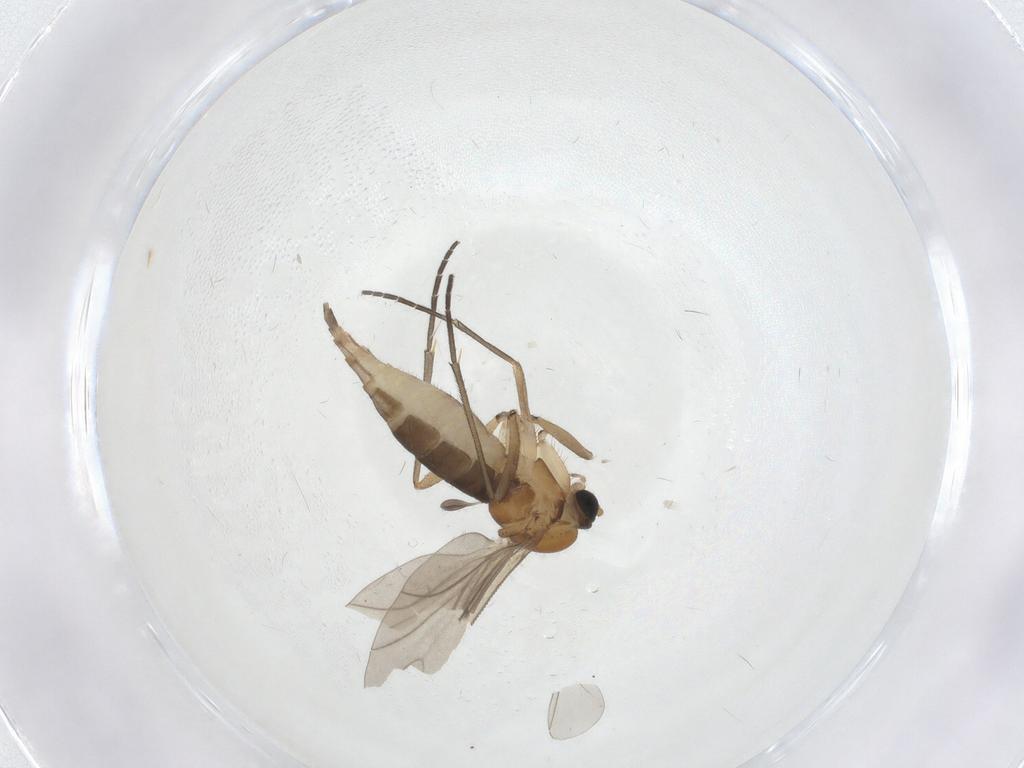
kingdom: Animalia
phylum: Arthropoda
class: Insecta
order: Diptera
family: Sciaridae
